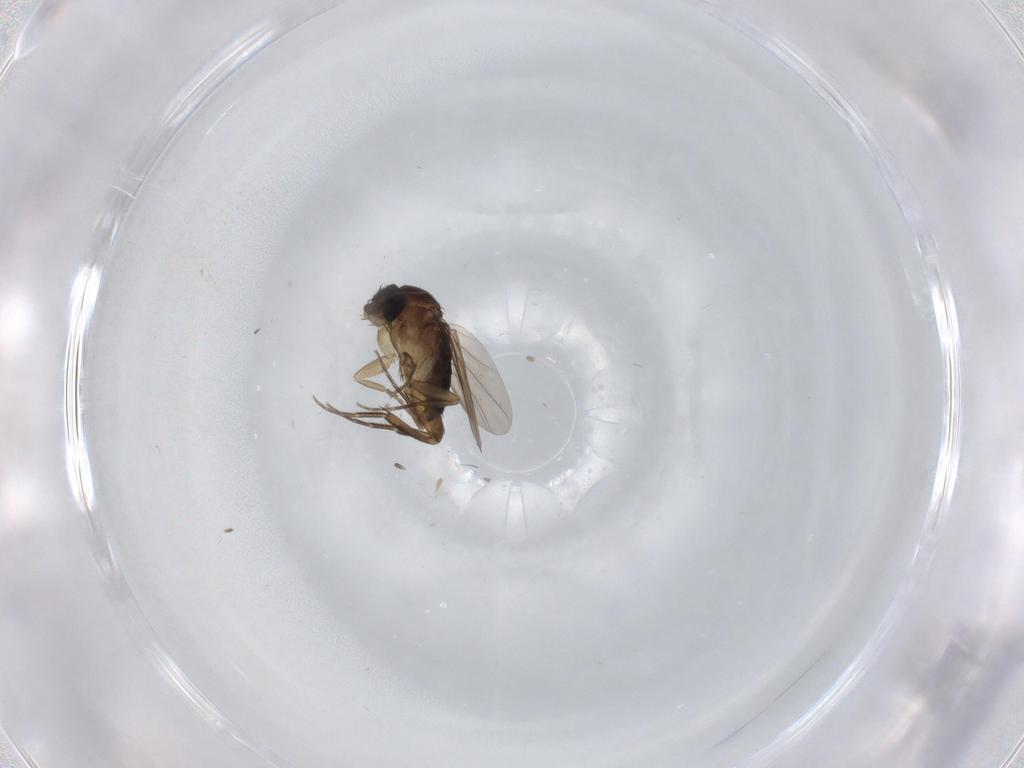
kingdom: Animalia
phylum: Arthropoda
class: Insecta
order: Diptera
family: Cecidomyiidae
